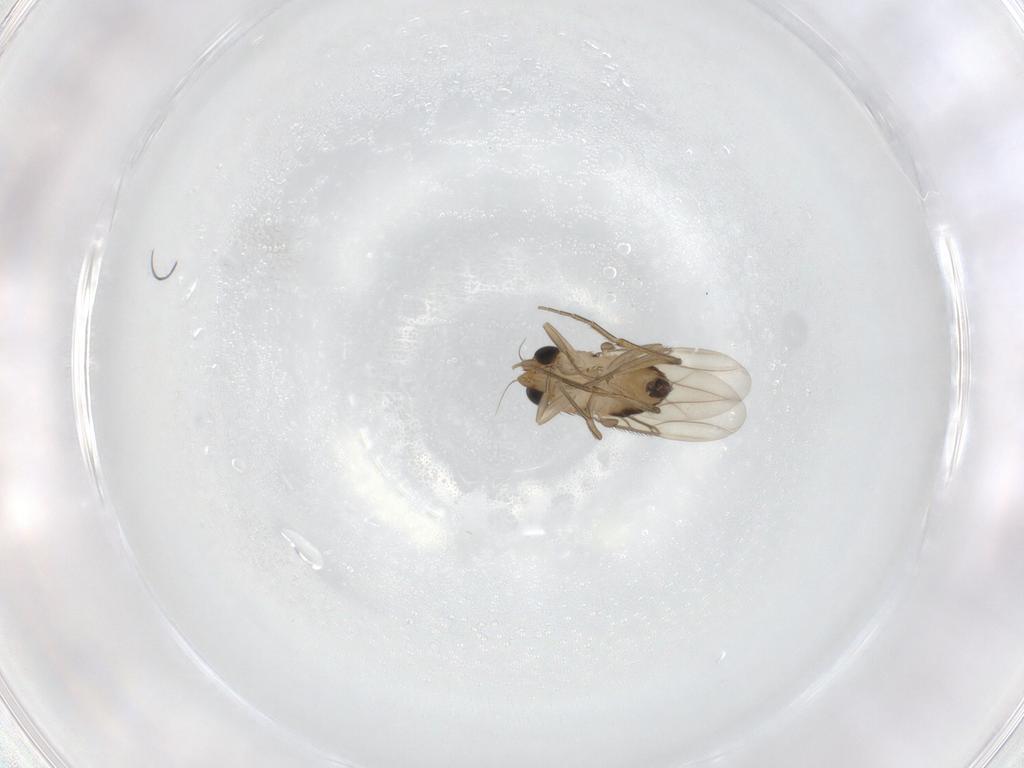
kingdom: Animalia
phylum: Arthropoda
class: Insecta
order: Diptera
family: Phoridae
